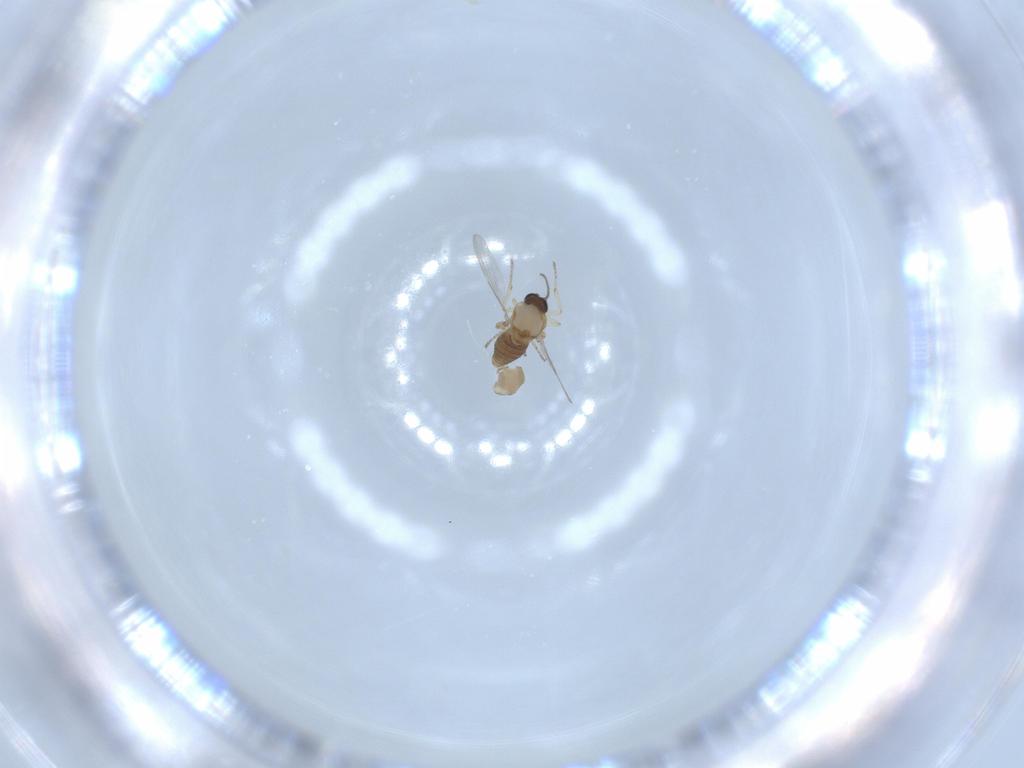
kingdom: Animalia
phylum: Arthropoda
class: Insecta
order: Diptera
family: Ceratopogonidae
